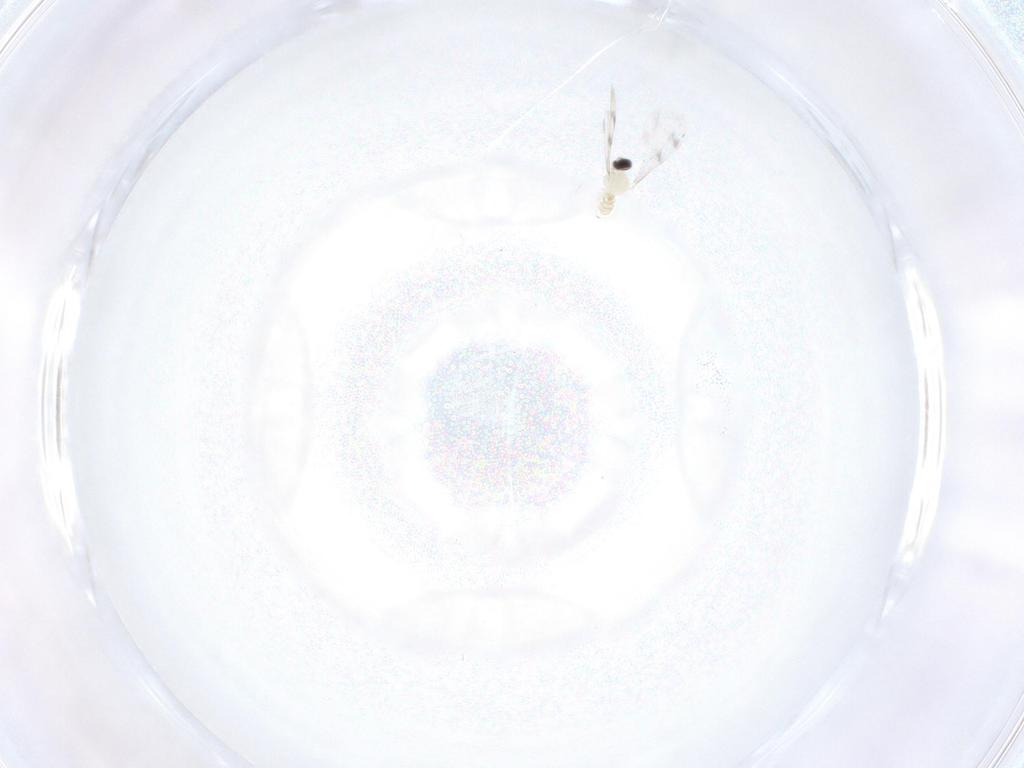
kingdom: Animalia
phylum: Arthropoda
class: Insecta
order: Diptera
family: Cecidomyiidae
